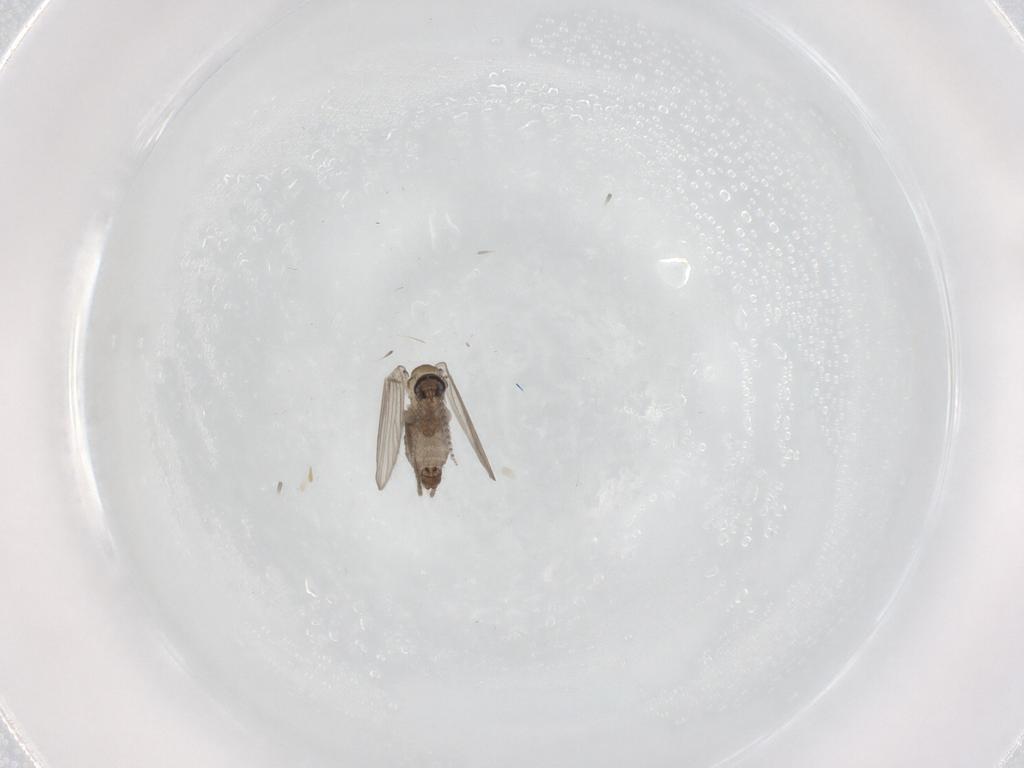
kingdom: Animalia
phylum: Arthropoda
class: Insecta
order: Diptera
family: Psychodidae
